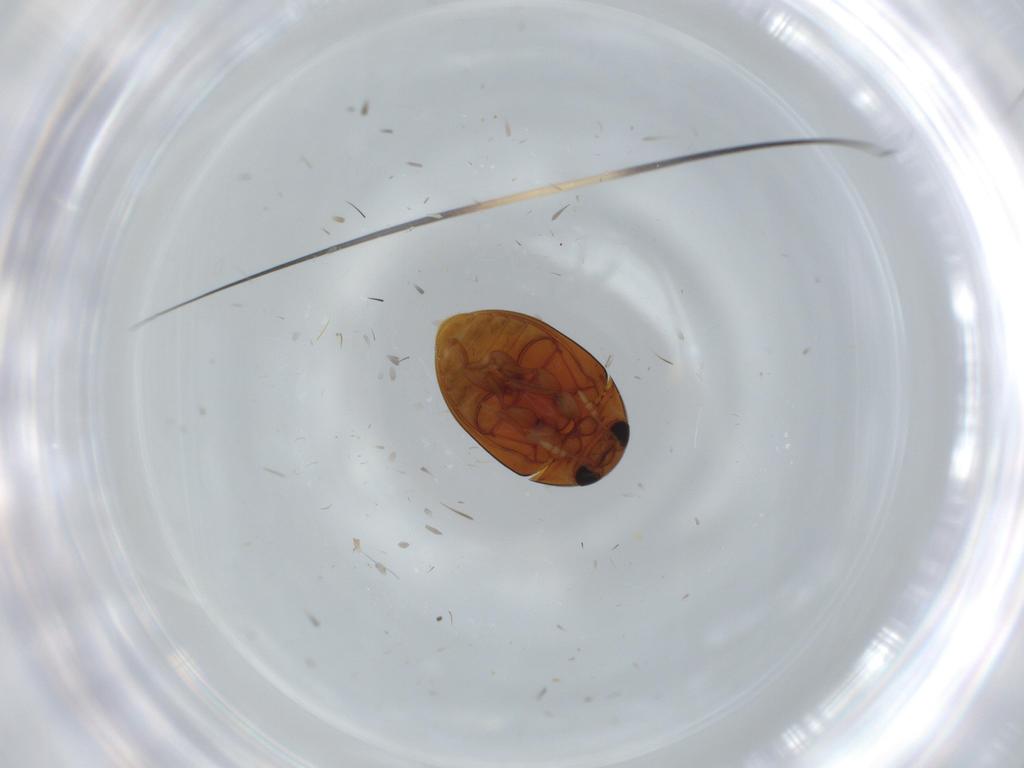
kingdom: Animalia
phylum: Arthropoda
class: Insecta
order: Coleoptera
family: Phalacridae
